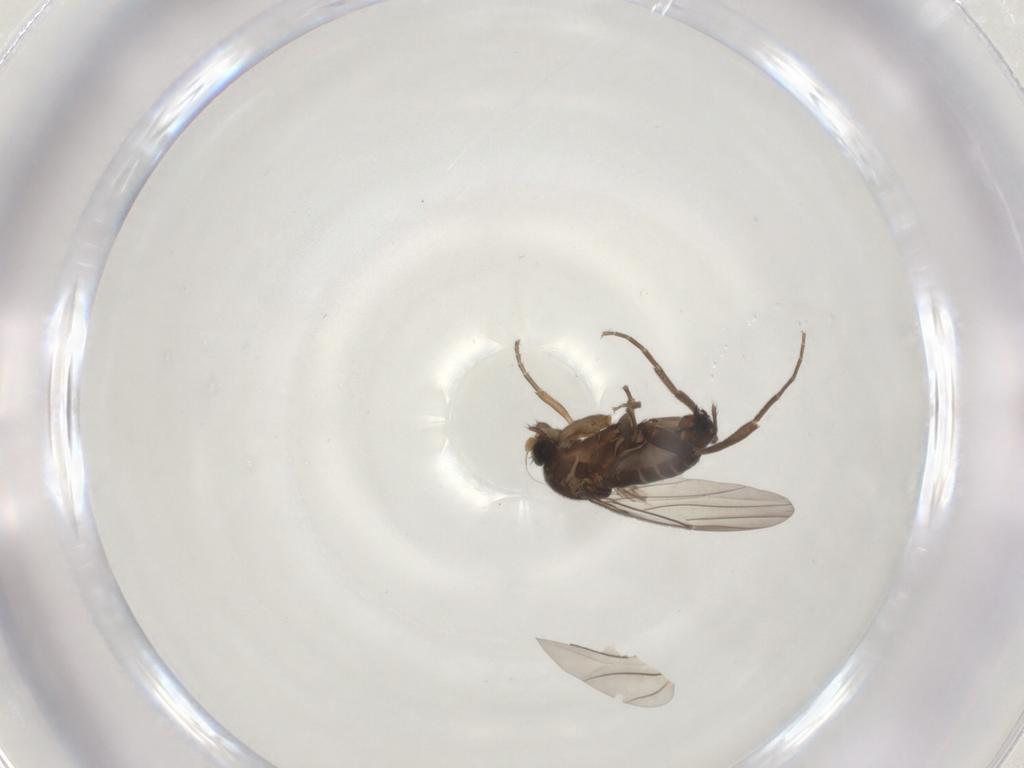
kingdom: Animalia
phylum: Arthropoda
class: Insecta
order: Diptera
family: Phoridae
